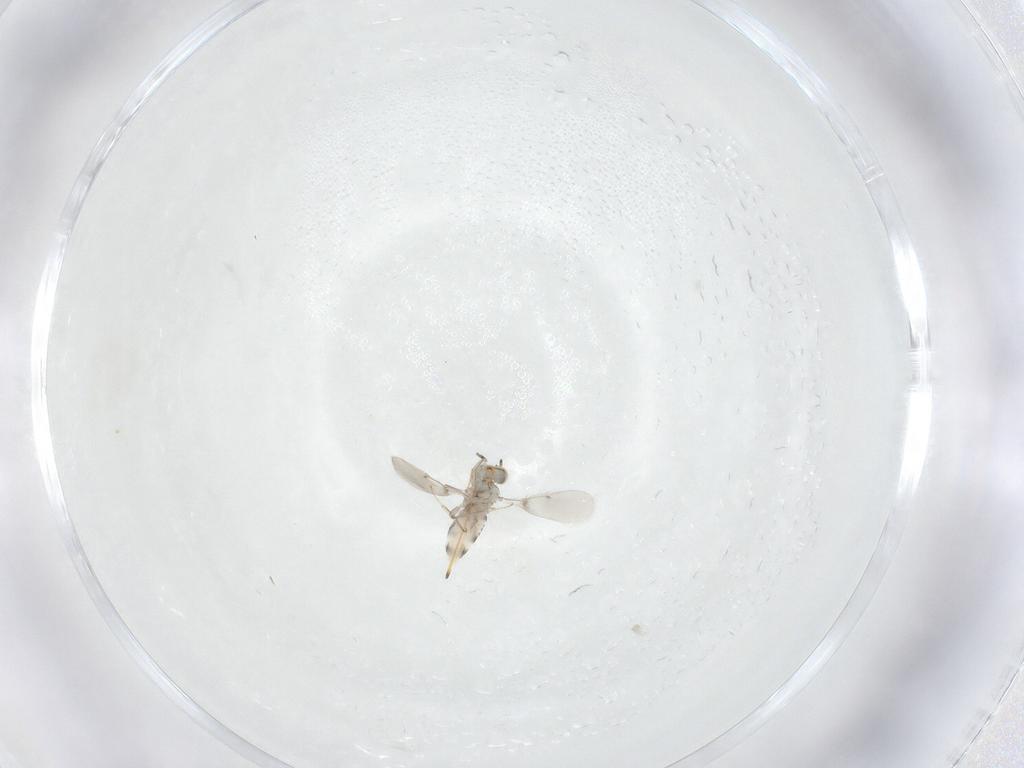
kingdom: Animalia
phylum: Arthropoda
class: Insecta
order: Hymenoptera
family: Aphelinidae
